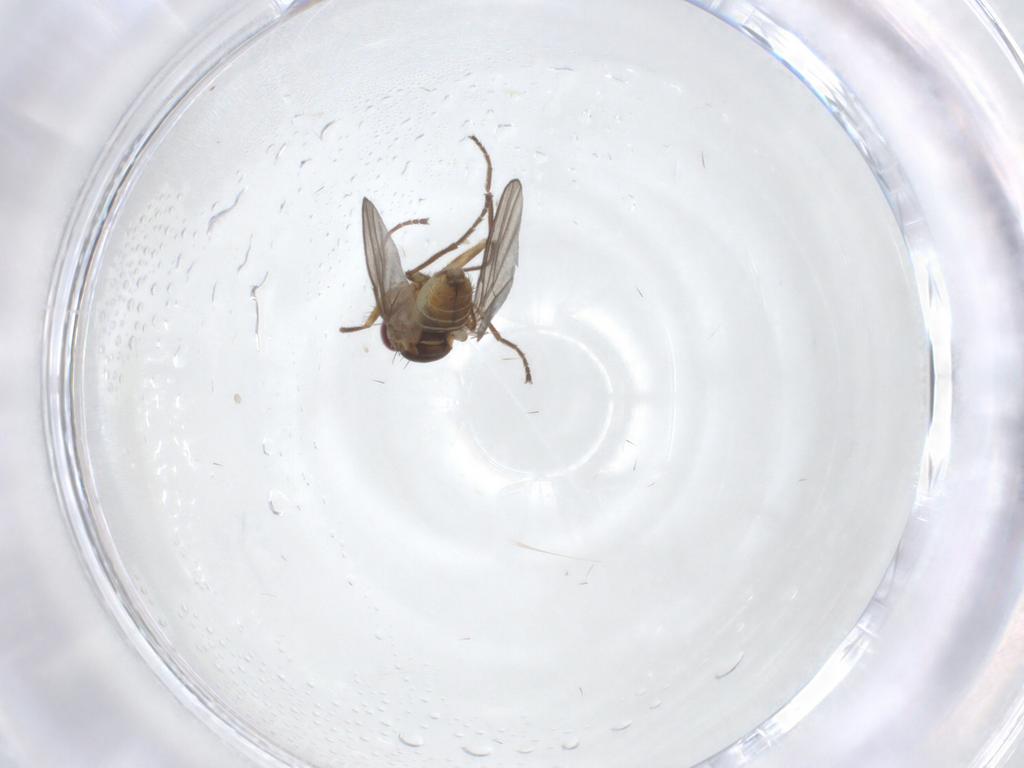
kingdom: Animalia
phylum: Arthropoda
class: Insecta
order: Diptera
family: Agromyzidae
